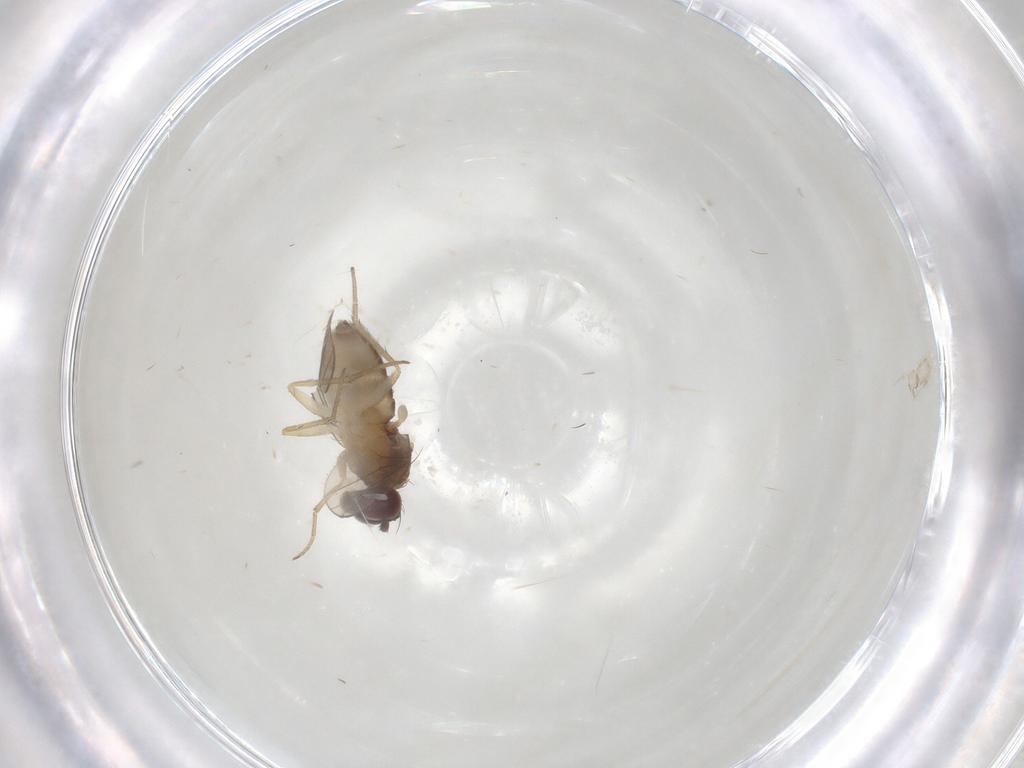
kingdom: Animalia
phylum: Arthropoda
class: Insecta
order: Diptera
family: Dolichopodidae
